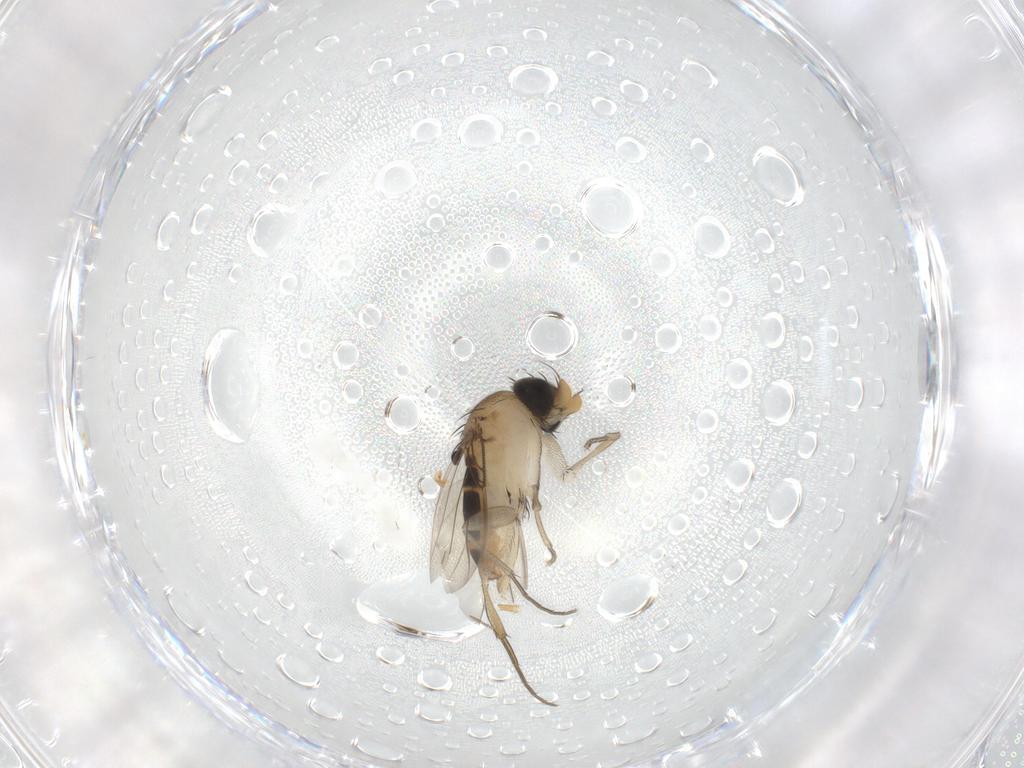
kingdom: Animalia
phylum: Arthropoda
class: Insecta
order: Diptera
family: Phoridae
